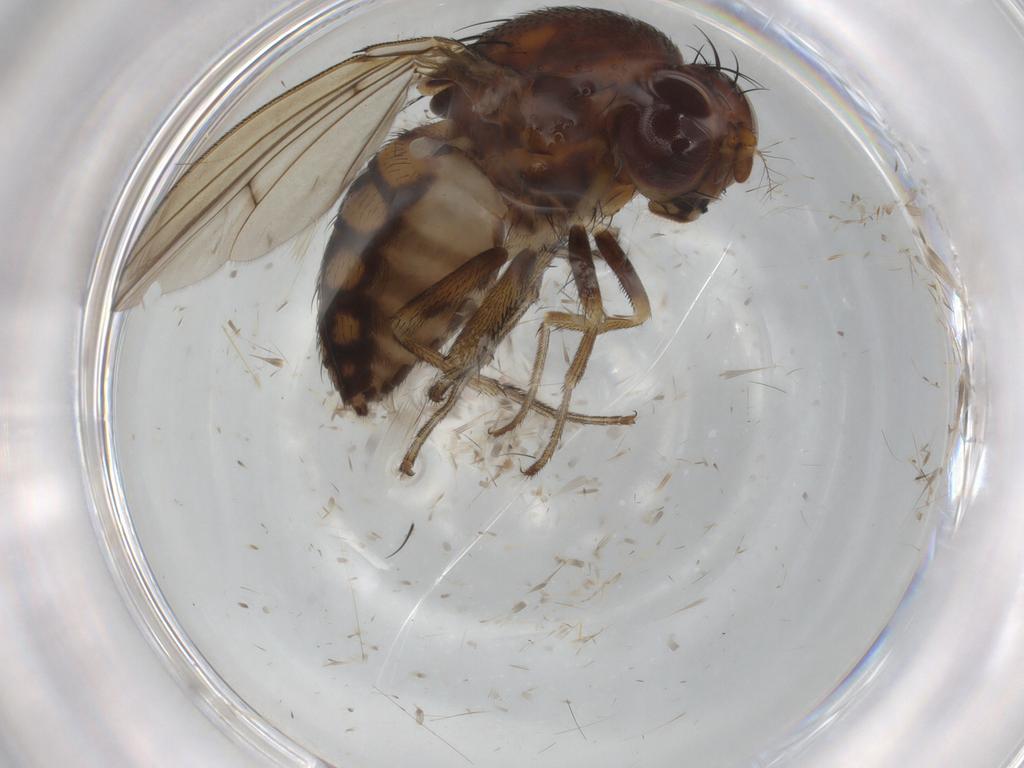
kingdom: Animalia
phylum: Arthropoda
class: Insecta
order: Diptera
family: Curtonotidae
